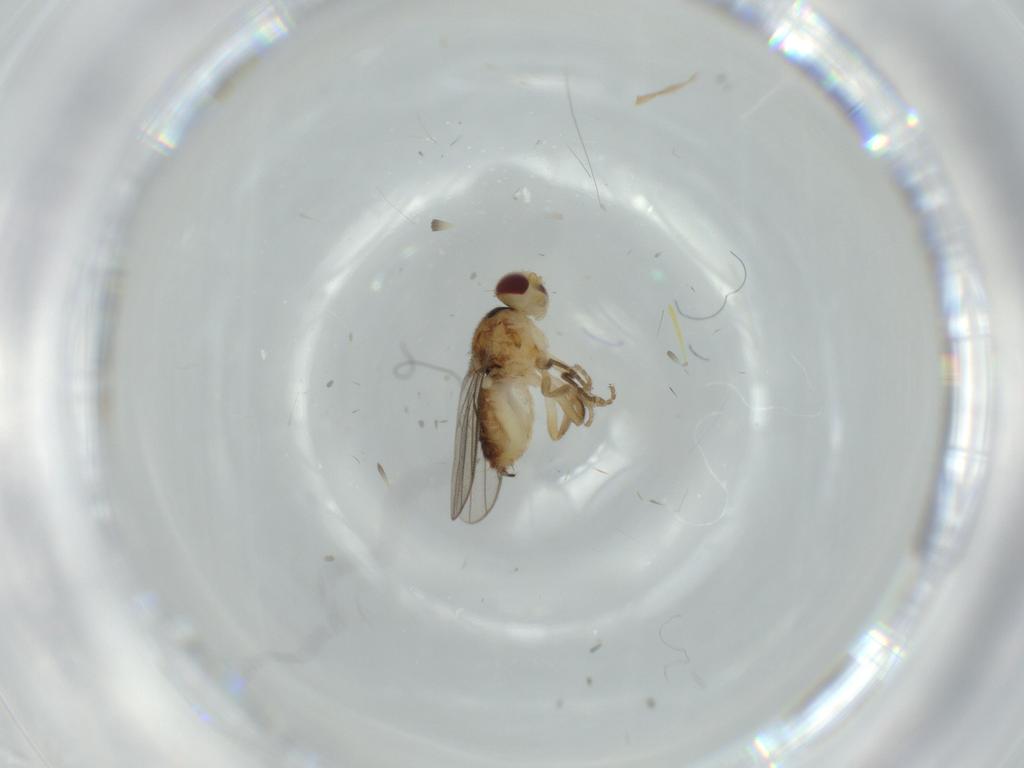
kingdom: Animalia
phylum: Arthropoda
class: Insecta
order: Diptera
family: Chloropidae
